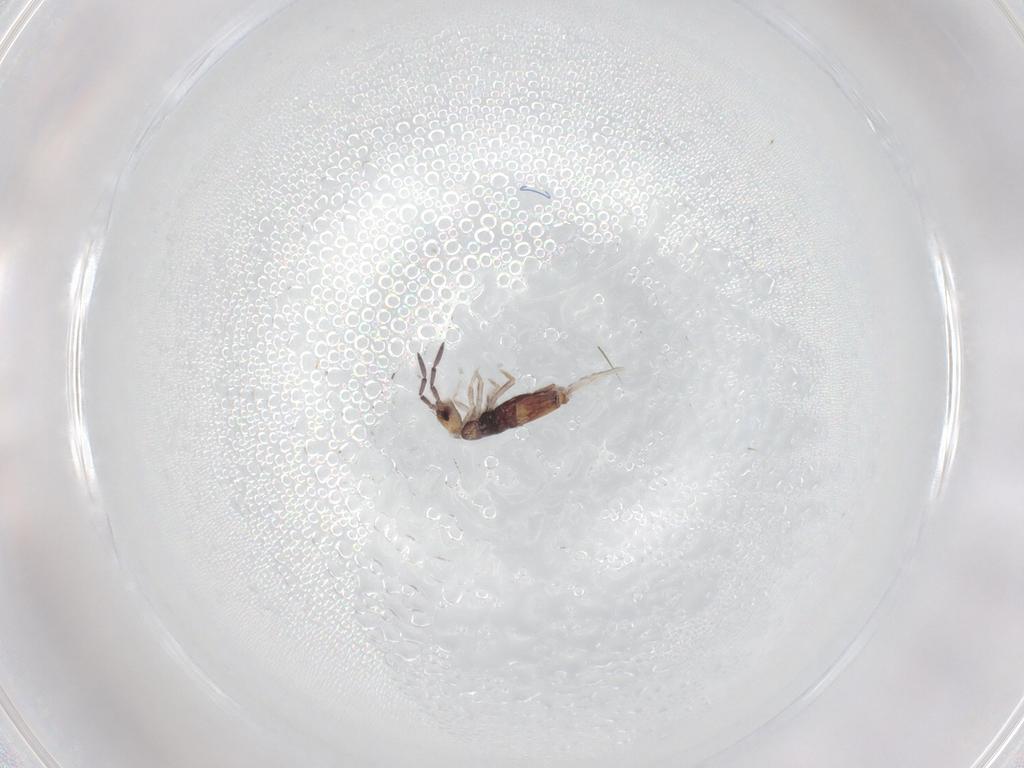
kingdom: Animalia
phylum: Arthropoda
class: Collembola
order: Entomobryomorpha
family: Entomobryidae
